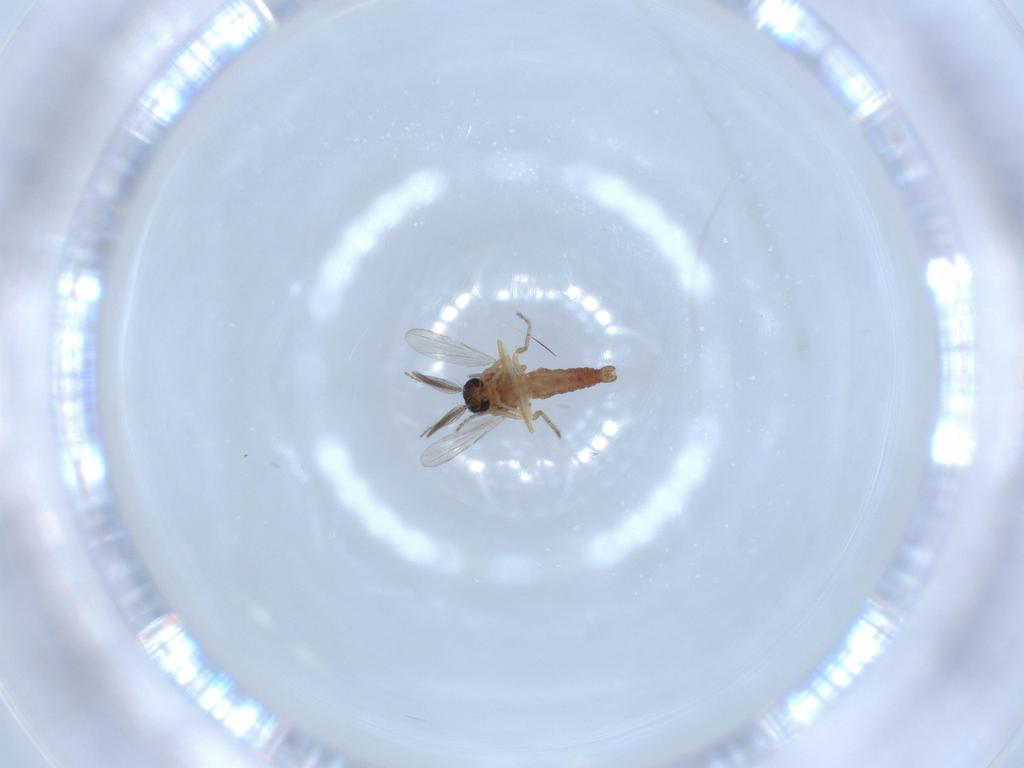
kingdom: Animalia
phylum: Arthropoda
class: Insecta
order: Diptera
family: Ceratopogonidae
